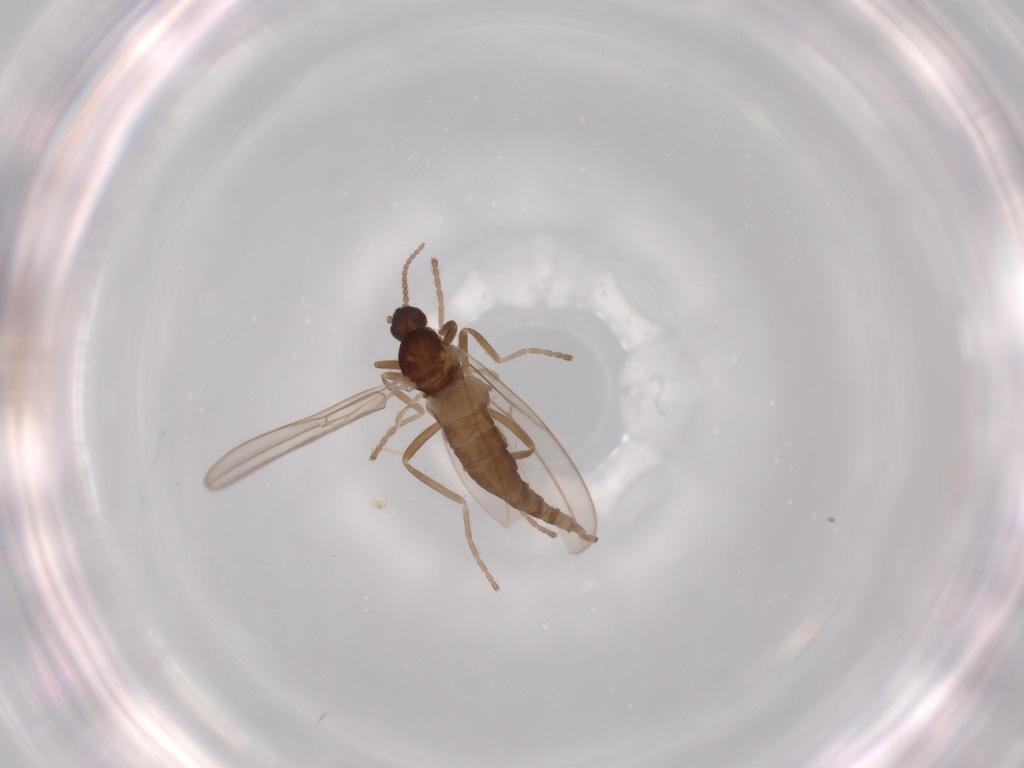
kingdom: Animalia
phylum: Arthropoda
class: Insecta
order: Diptera
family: Cecidomyiidae
